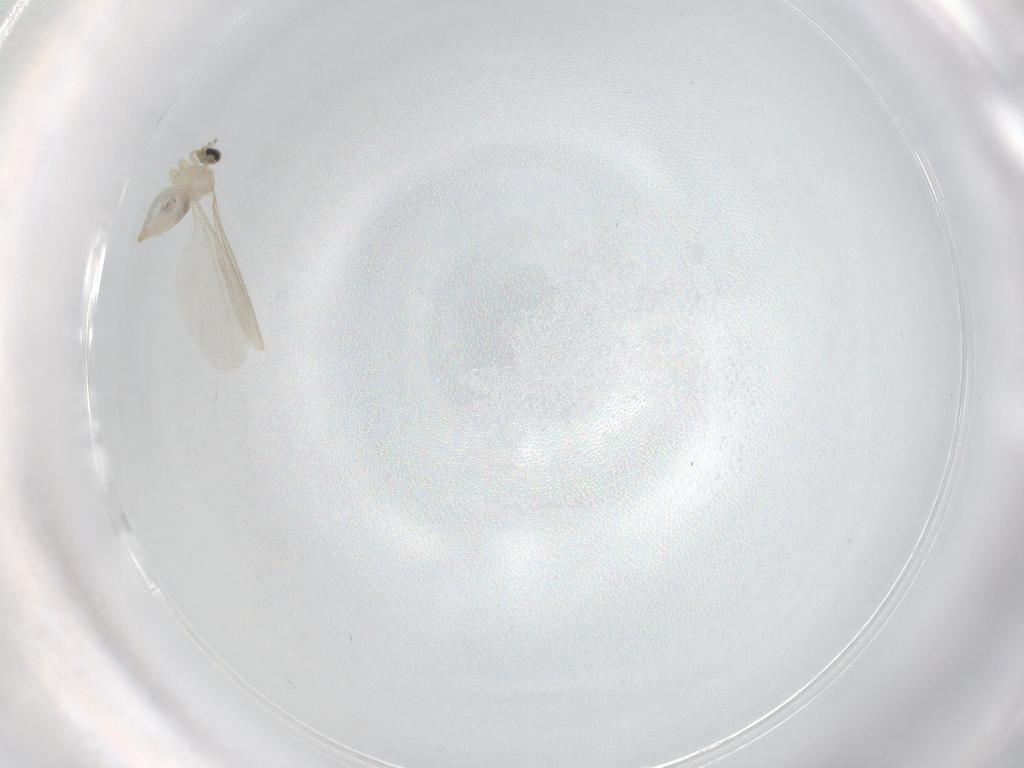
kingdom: Animalia
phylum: Arthropoda
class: Insecta
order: Diptera
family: Cecidomyiidae
